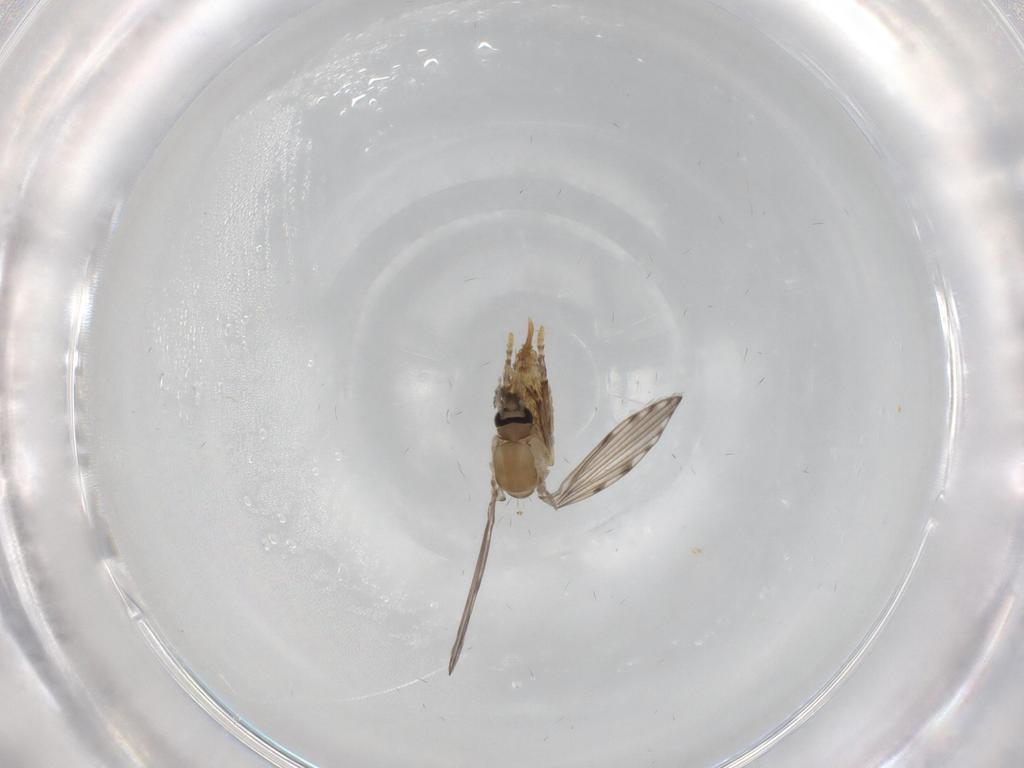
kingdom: Animalia
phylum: Arthropoda
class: Insecta
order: Diptera
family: Psychodidae
